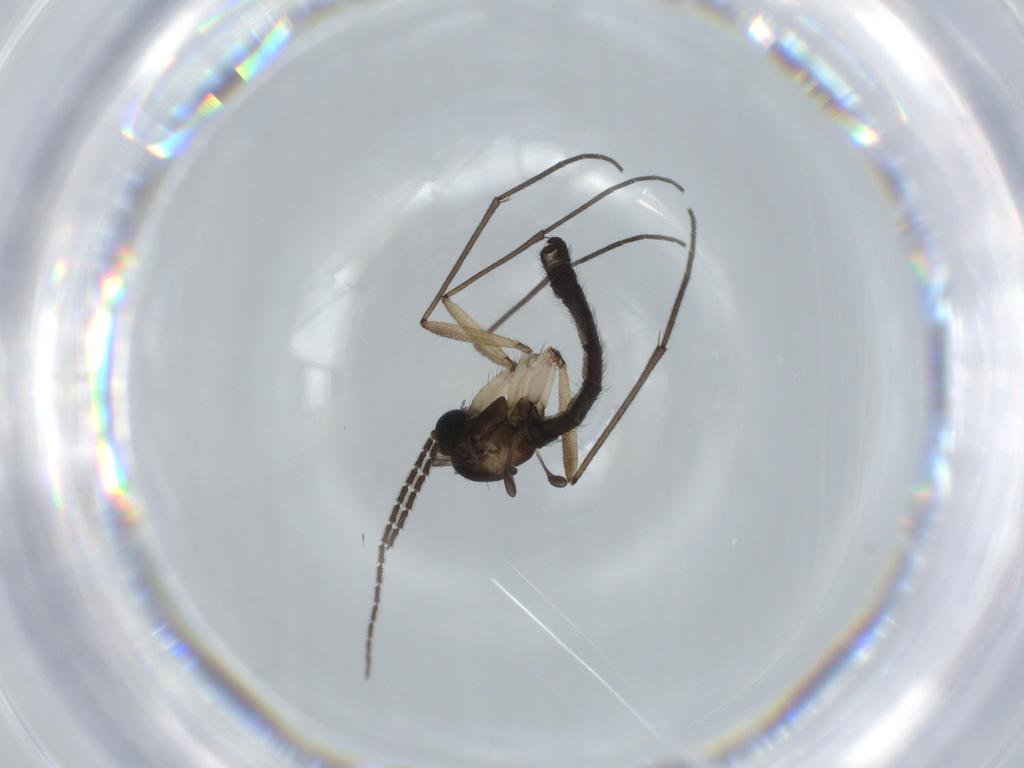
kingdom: Animalia
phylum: Arthropoda
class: Insecta
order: Diptera
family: Sciaridae
